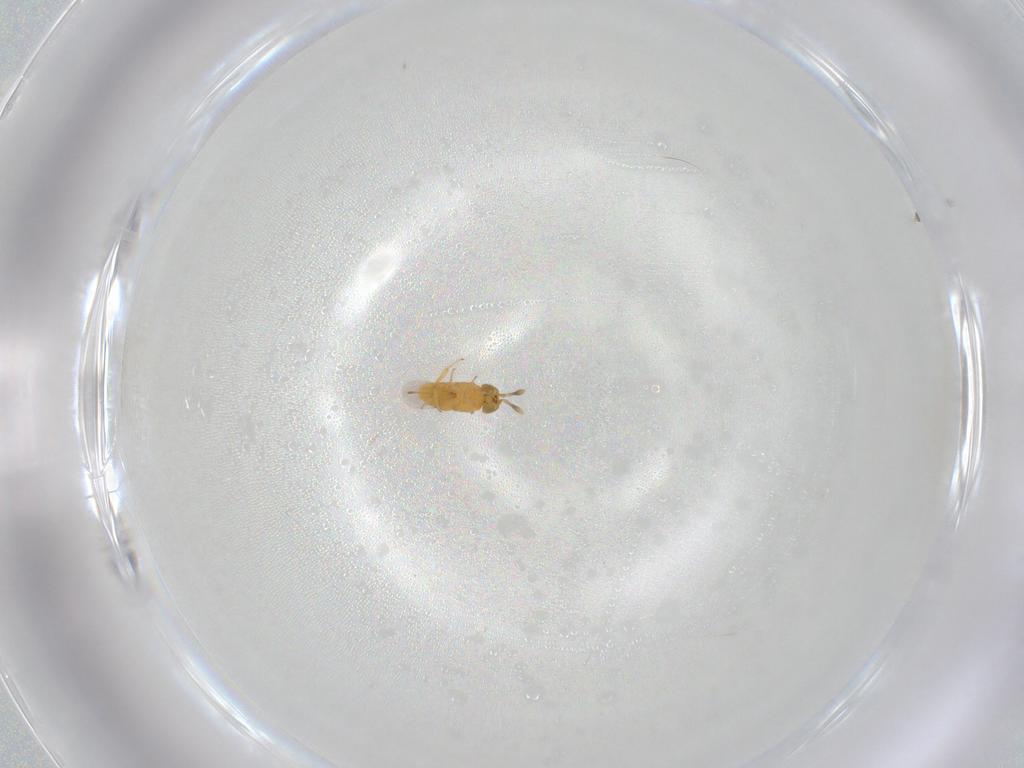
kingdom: Animalia
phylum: Arthropoda
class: Insecta
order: Hymenoptera
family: Encyrtidae
